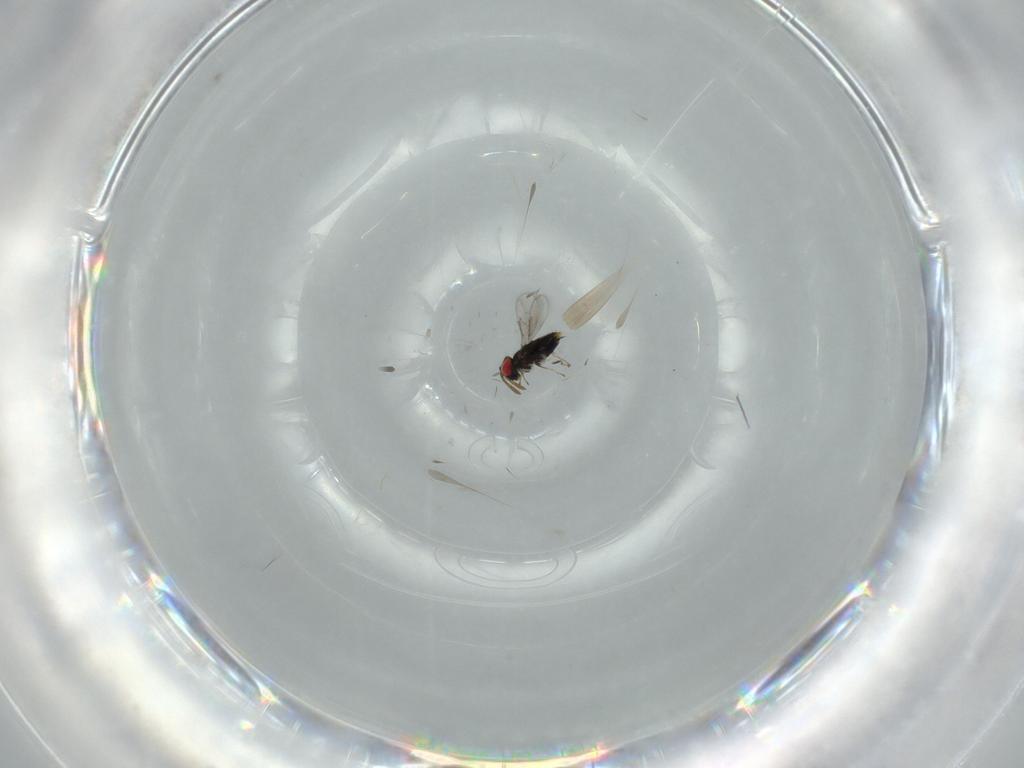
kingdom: Animalia
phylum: Arthropoda
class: Insecta
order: Hymenoptera
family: Azotidae
